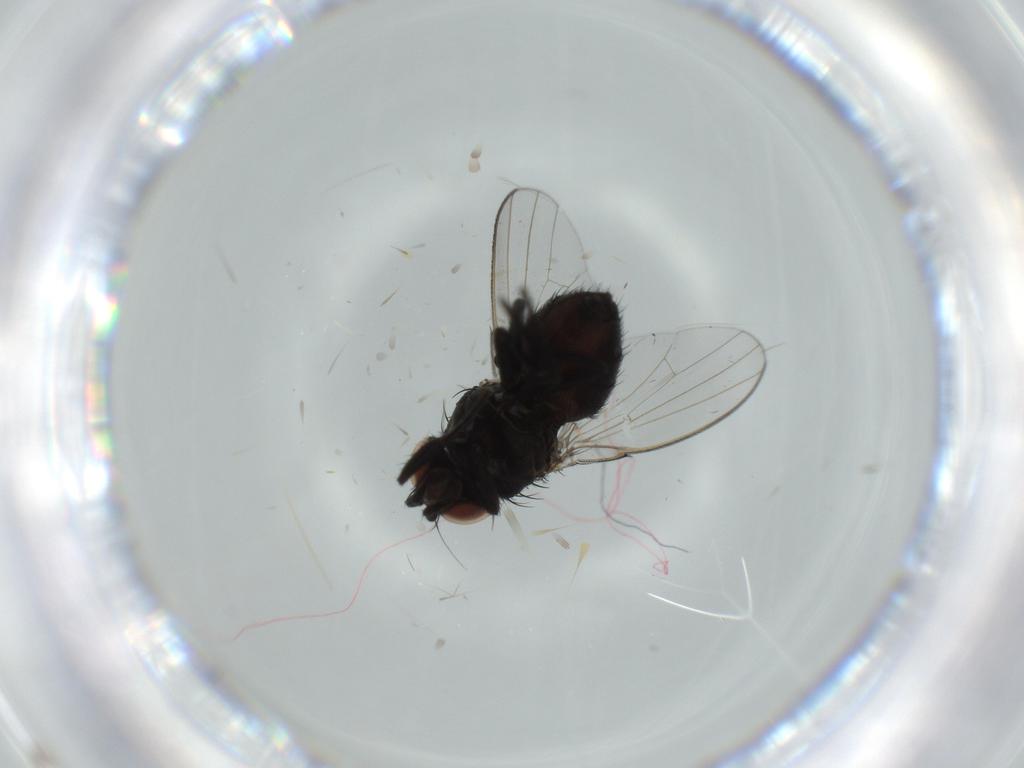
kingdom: Animalia
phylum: Arthropoda
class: Insecta
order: Diptera
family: Milichiidae
